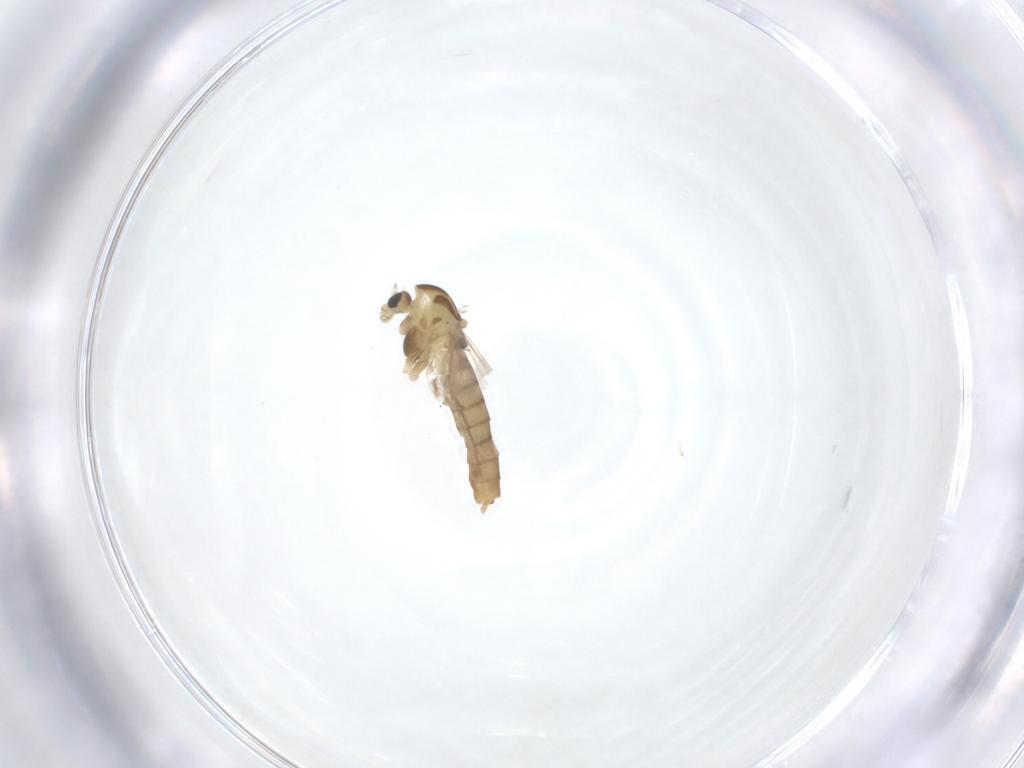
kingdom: Animalia
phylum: Arthropoda
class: Insecta
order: Diptera
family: Chironomidae
